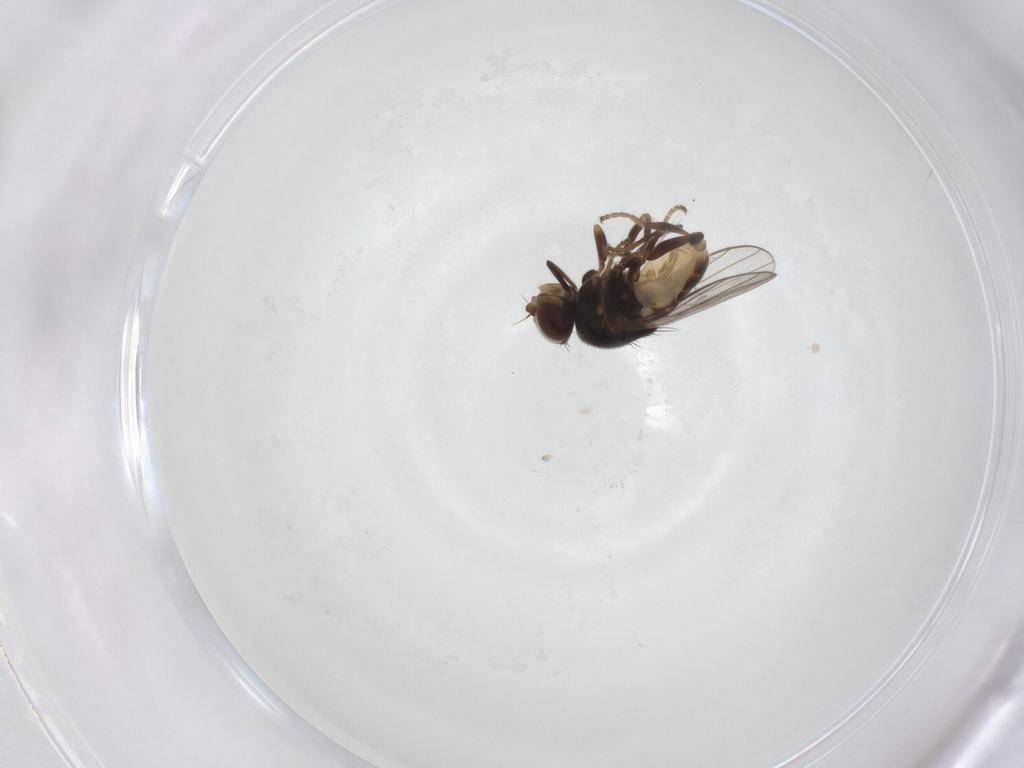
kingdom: Animalia
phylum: Arthropoda
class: Insecta
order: Diptera
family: Chloropidae
